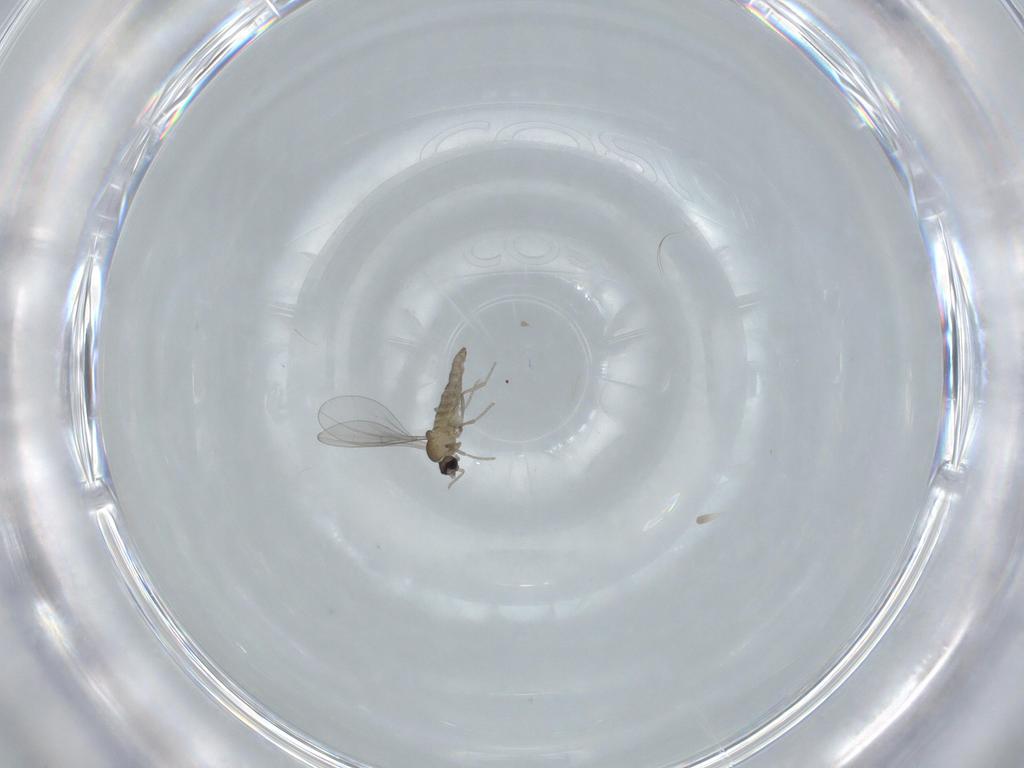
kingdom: Animalia
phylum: Arthropoda
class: Insecta
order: Diptera
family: Cecidomyiidae
